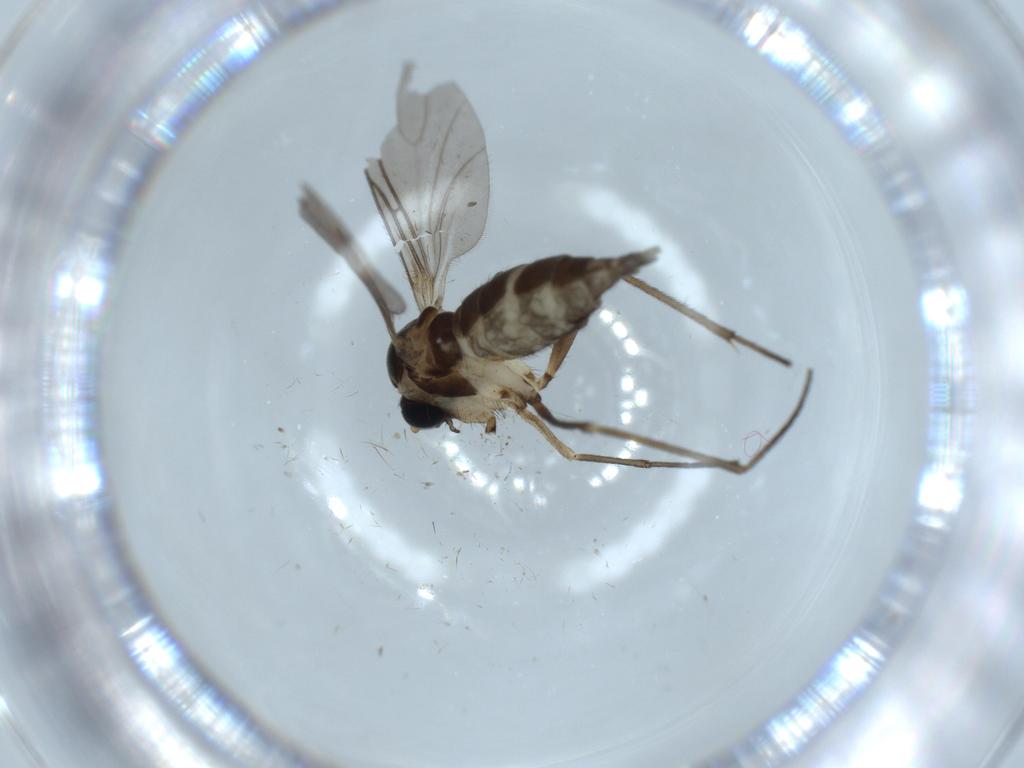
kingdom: Animalia
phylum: Arthropoda
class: Insecta
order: Diptera
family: Sciaridae
